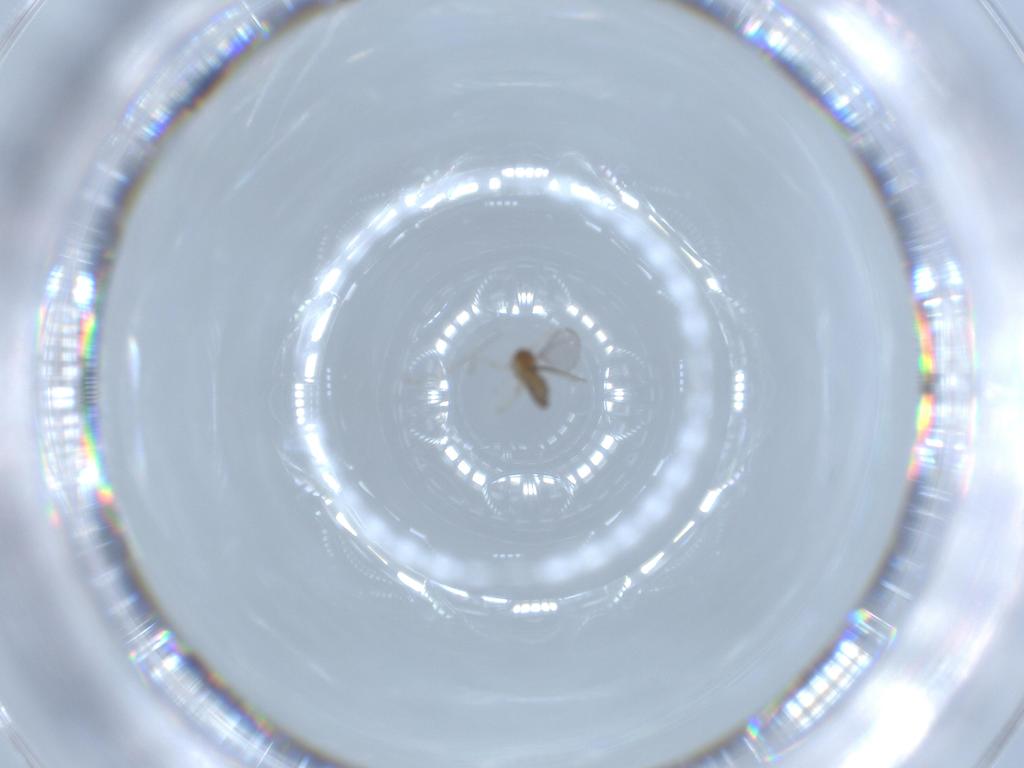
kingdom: Animalia
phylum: Arthropoda
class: Insecta
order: Diptera
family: Cecidomyiidae
